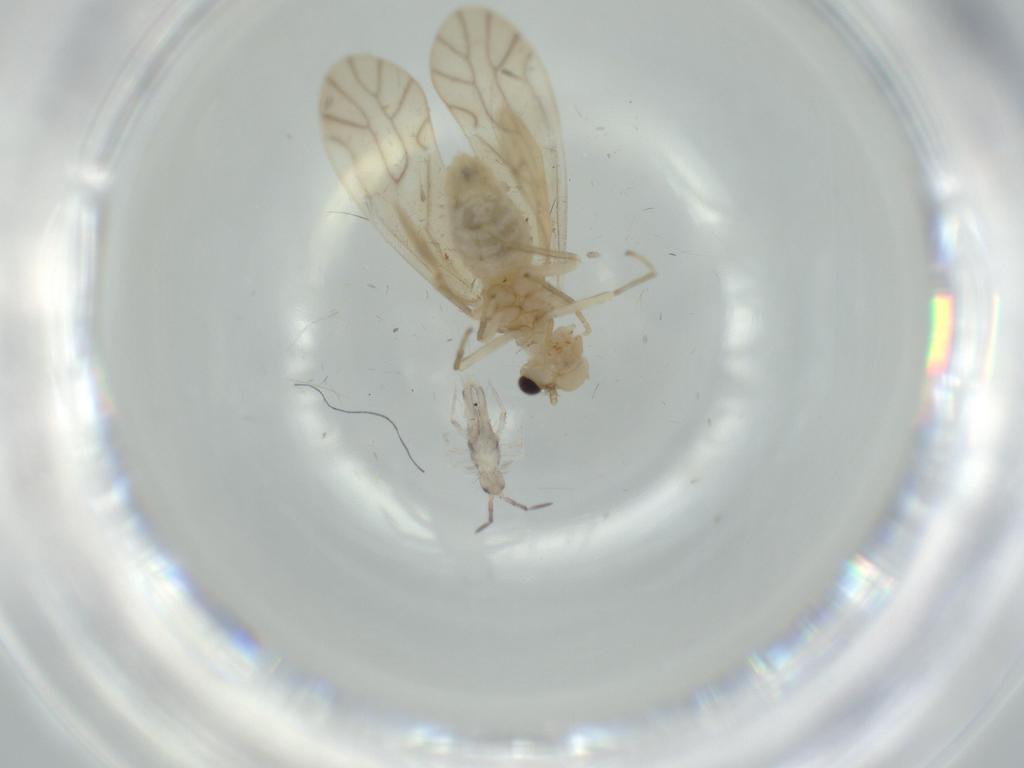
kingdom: Animalia
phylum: Arthropoda
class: Insecta
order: Psocodea
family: Caeciliusidae
